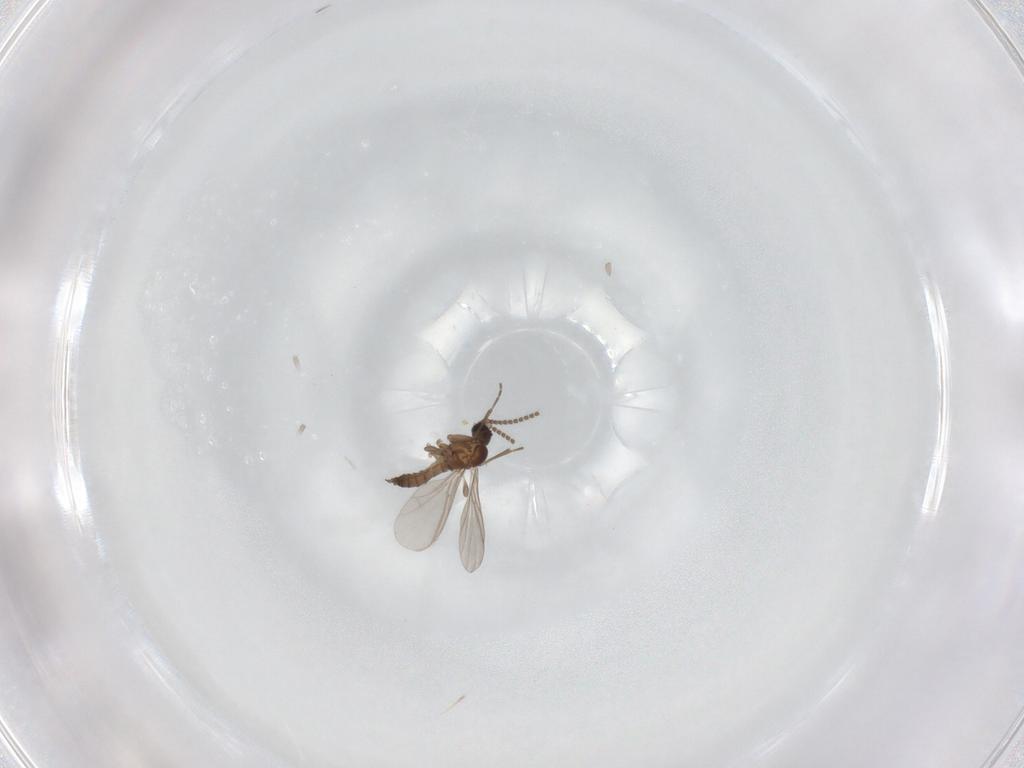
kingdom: Animalia
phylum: Arthropoda
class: Insecta
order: Diptera
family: Sciaridae
